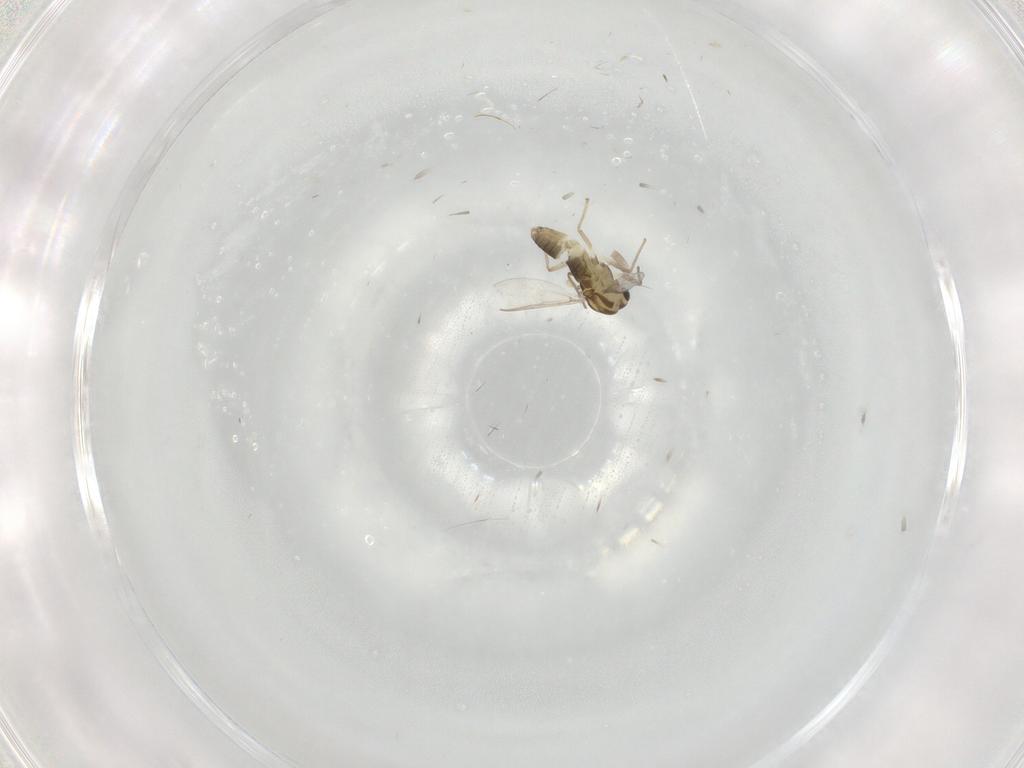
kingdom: Animalia
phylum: Arthropoda
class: Insecta
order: Diptera
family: Chironomidae
